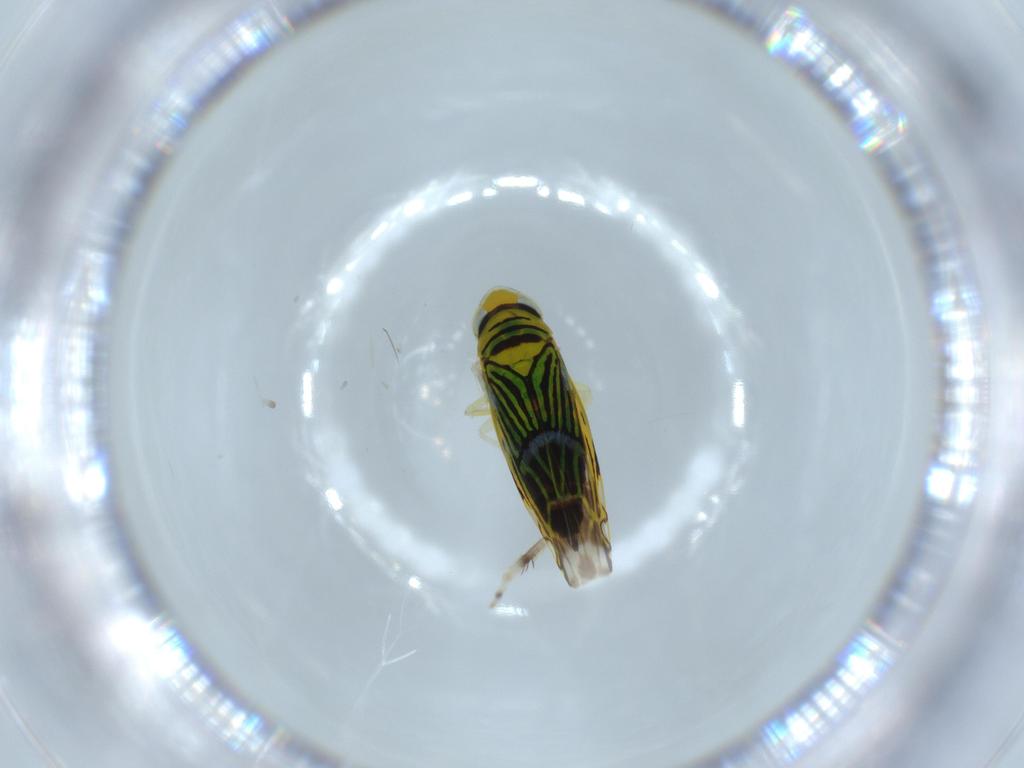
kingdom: Animalia
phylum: Arthropoda
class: Insecta
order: Hemiptera
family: Cicadellidae
